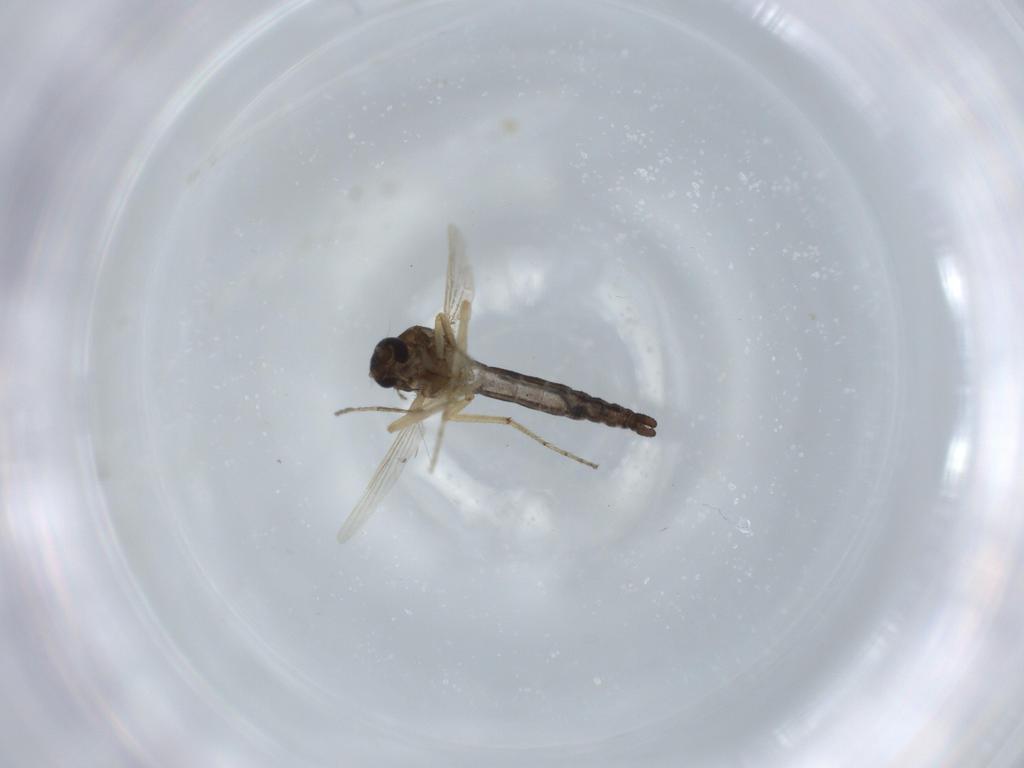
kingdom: Animalia
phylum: Arthropoda
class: Insecta
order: Diptera
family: Ceratopogonidae
